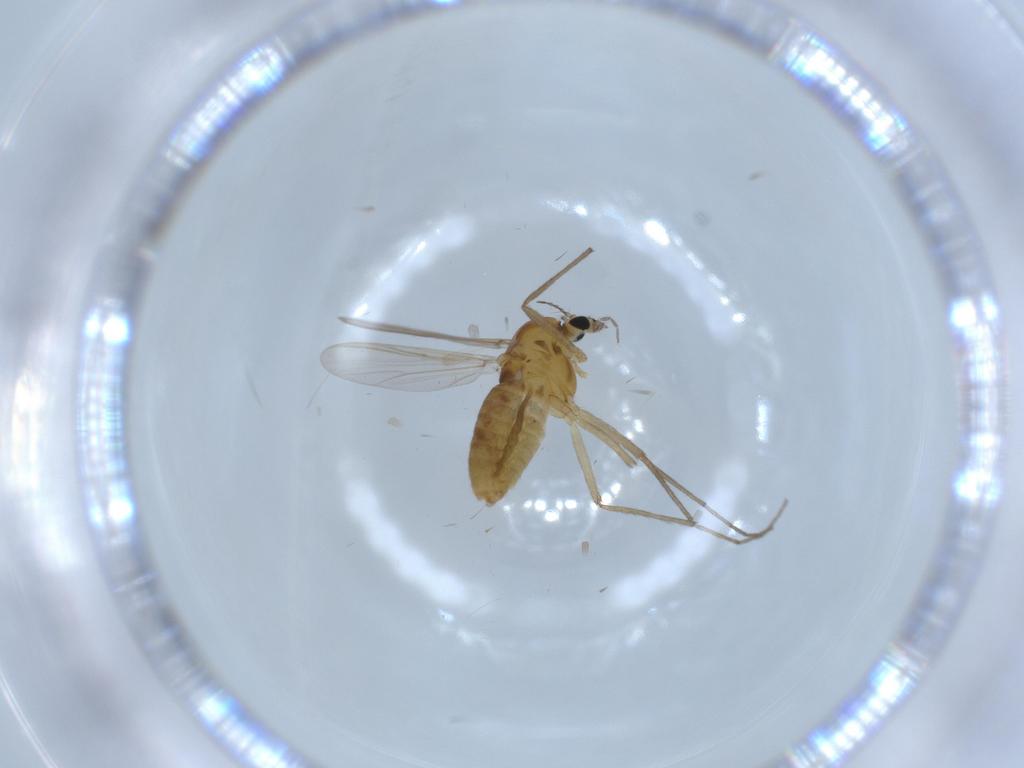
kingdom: Animalia
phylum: Arthropoda
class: Insecta
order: Diptera
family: Chironomidae
